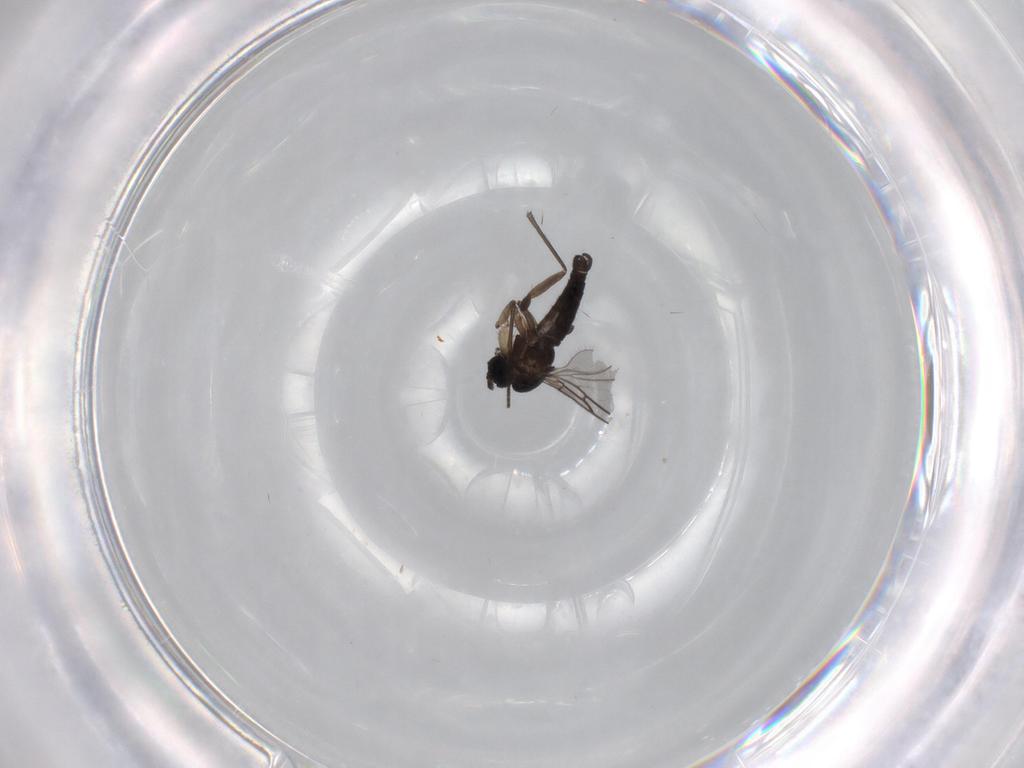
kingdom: Animalia
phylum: Arthropoda
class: Insecta
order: Diptera
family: Sciaridae
